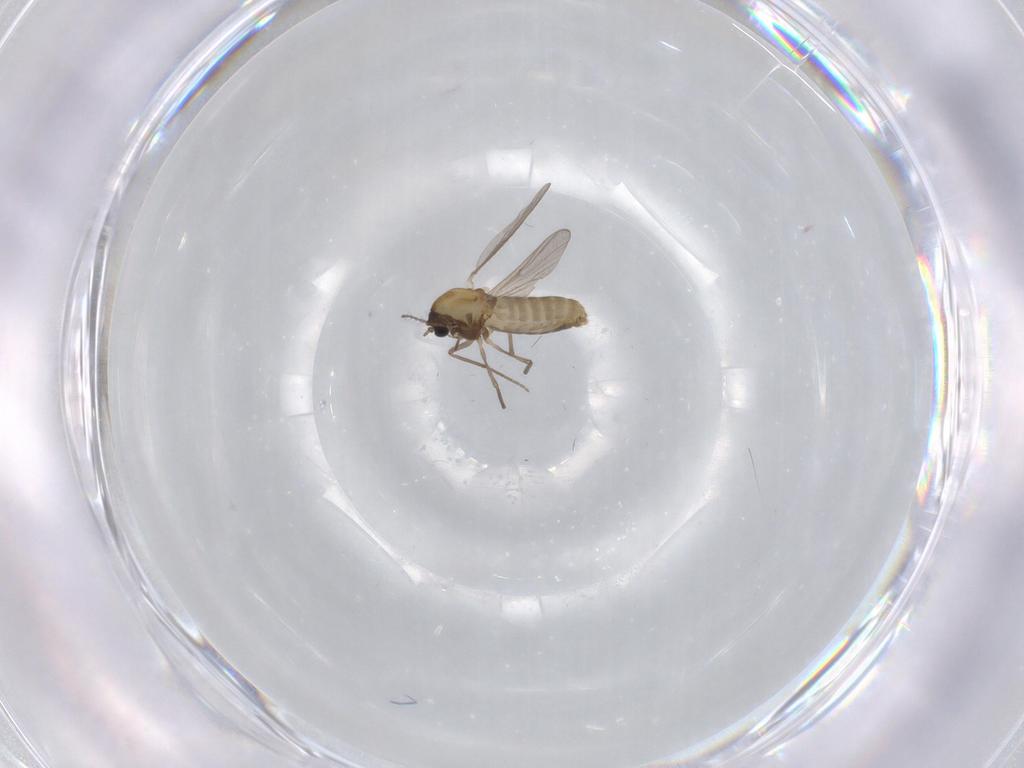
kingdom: Animalia
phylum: Arthropoda
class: Insecta
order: Diptera
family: Chironomidae
